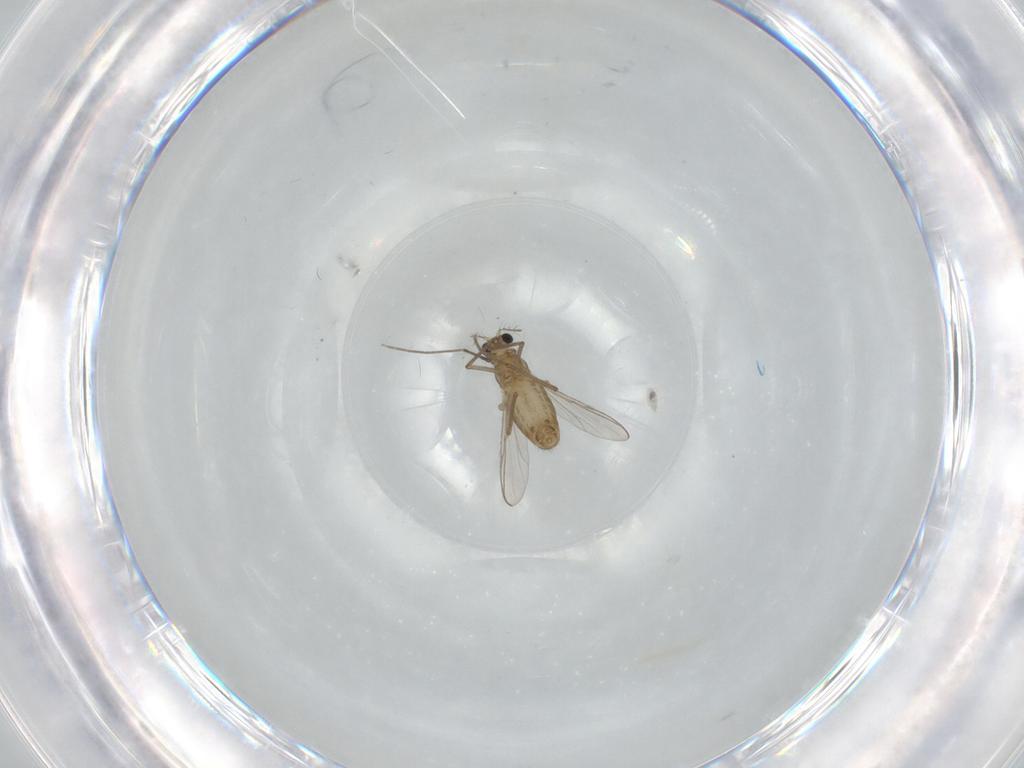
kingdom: Animalia
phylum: Arthropoda
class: Insecta
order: Diptera
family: Chironomidae
